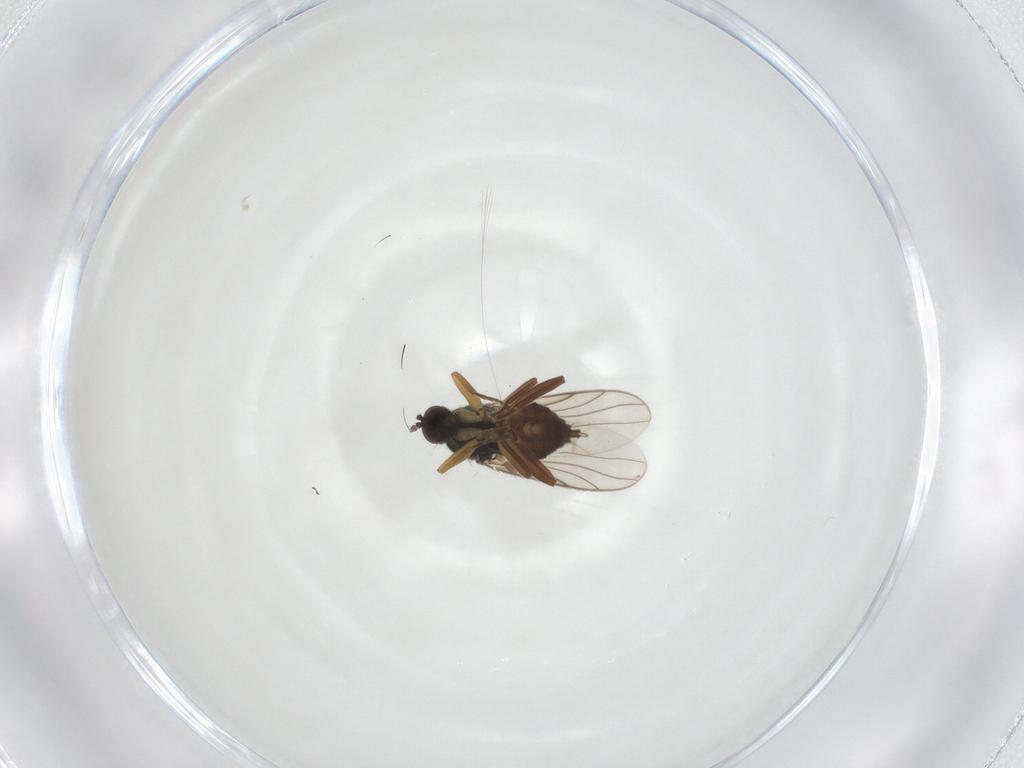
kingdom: Animalia
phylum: Arthropoda
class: Insecta
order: Diptera
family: Hybotidae
